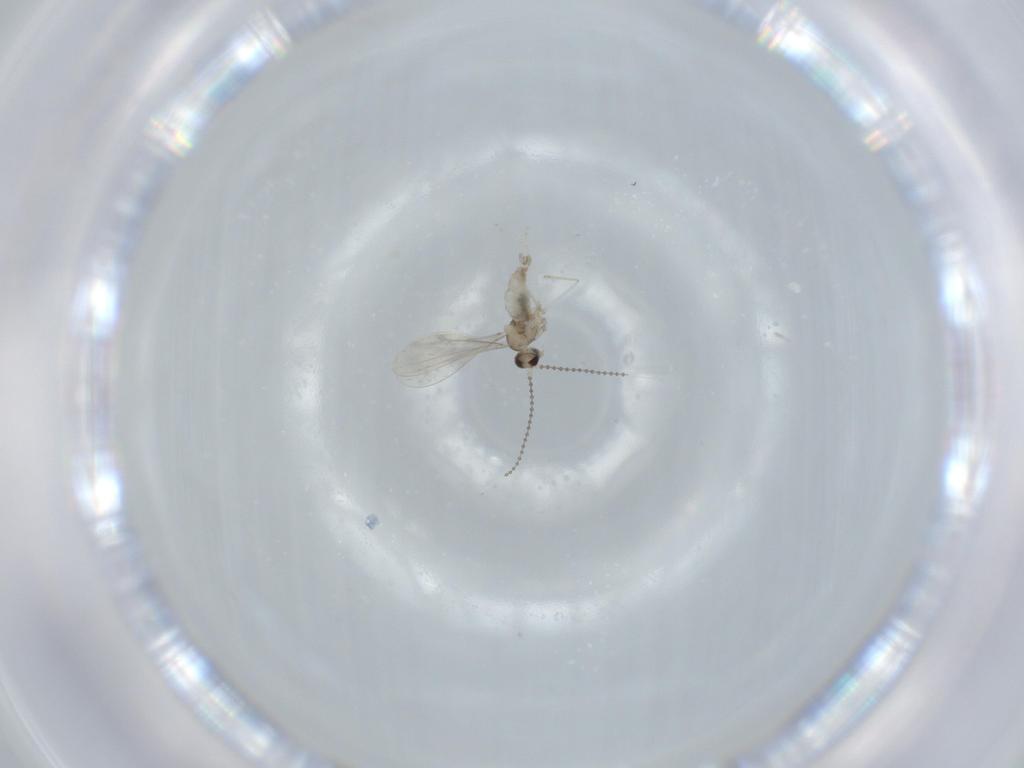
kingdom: Animalia
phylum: Arthropoda
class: Insecta
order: Diptera
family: Cecidomyiidae
